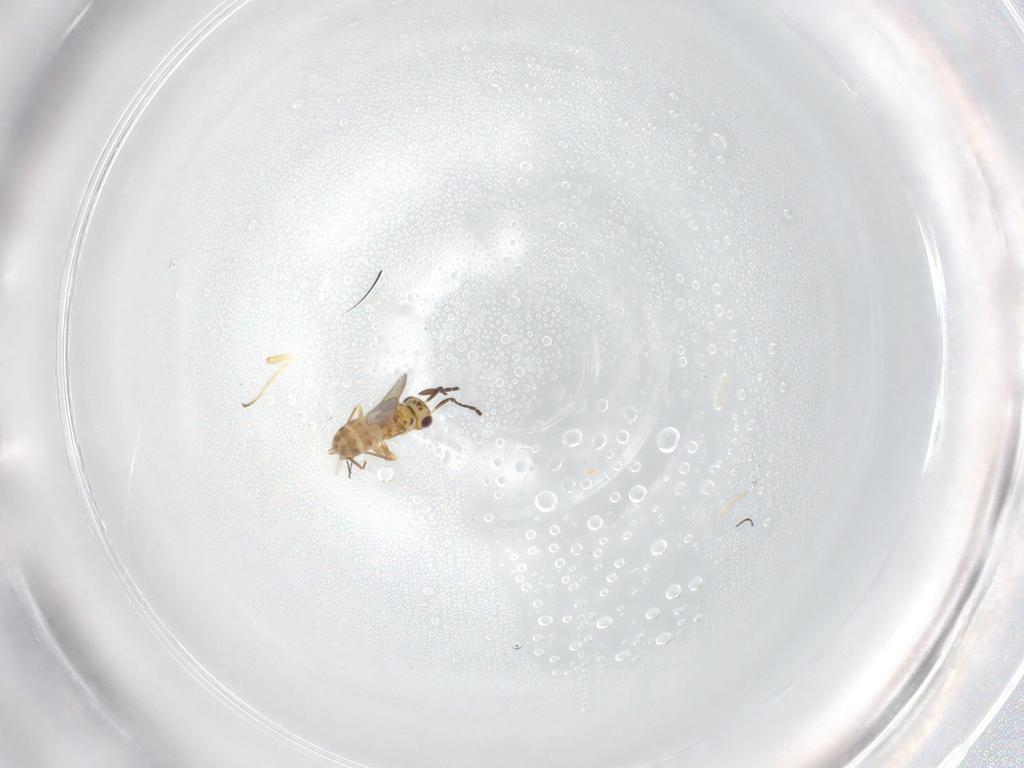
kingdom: Animalia
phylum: Arthropoda
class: Insecta
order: Hymenoptera
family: Mymaridae
